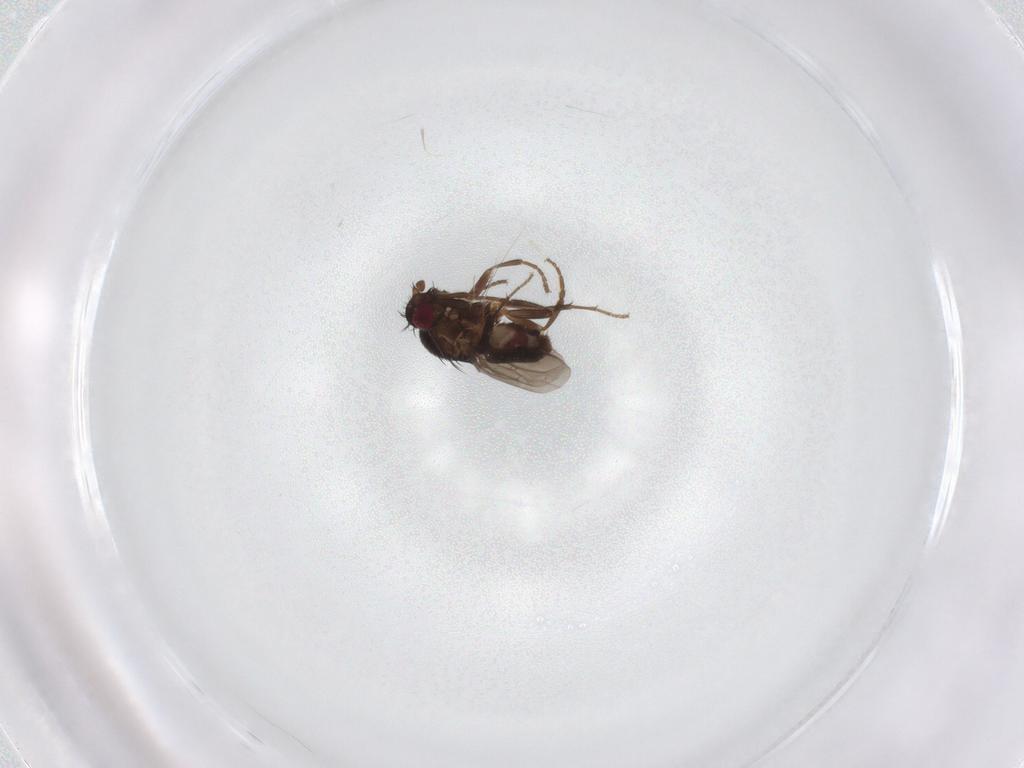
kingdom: Animalia
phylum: Arthropoda
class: Insecta
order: Diptera
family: Sphaeroceridae
